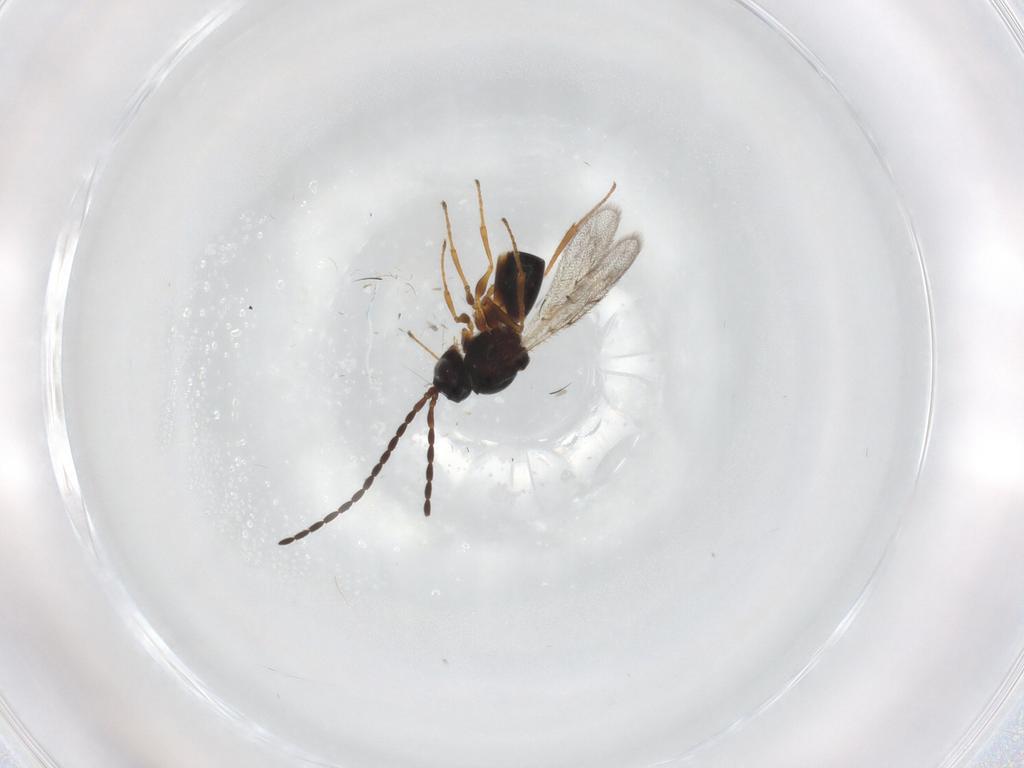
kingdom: Animalia
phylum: Arthropoda
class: Insecta
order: Hymenoptera
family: Figitidae
